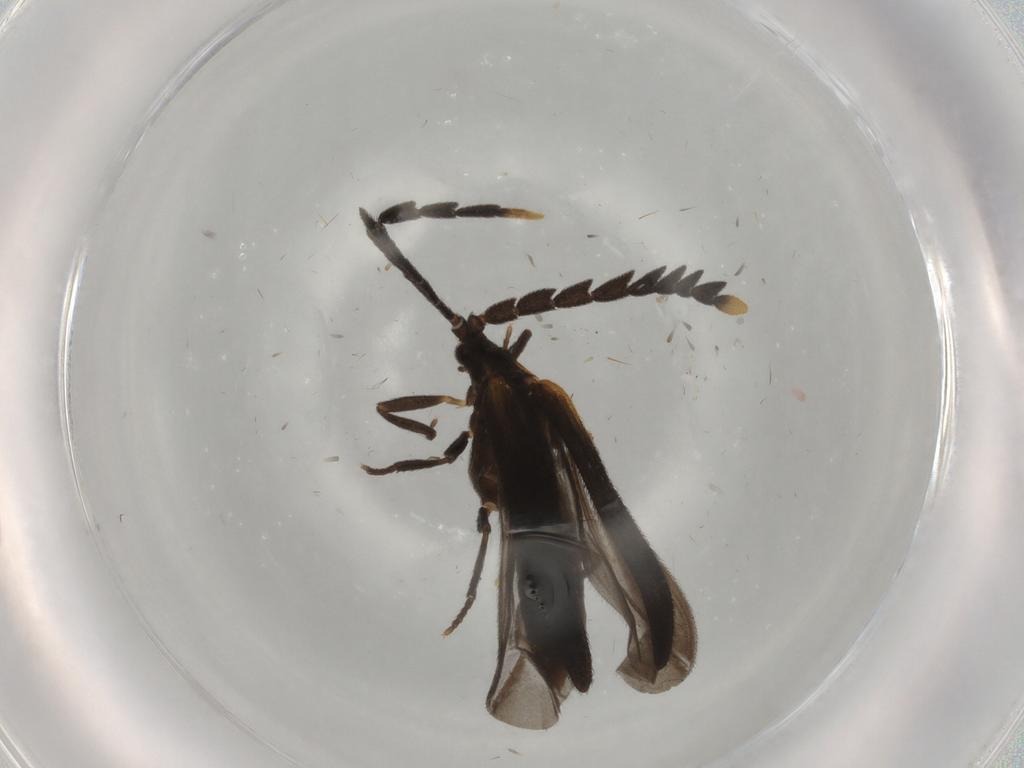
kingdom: Animalia
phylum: Arthropoda
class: Insecta
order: Coleoptera
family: Lycidae
